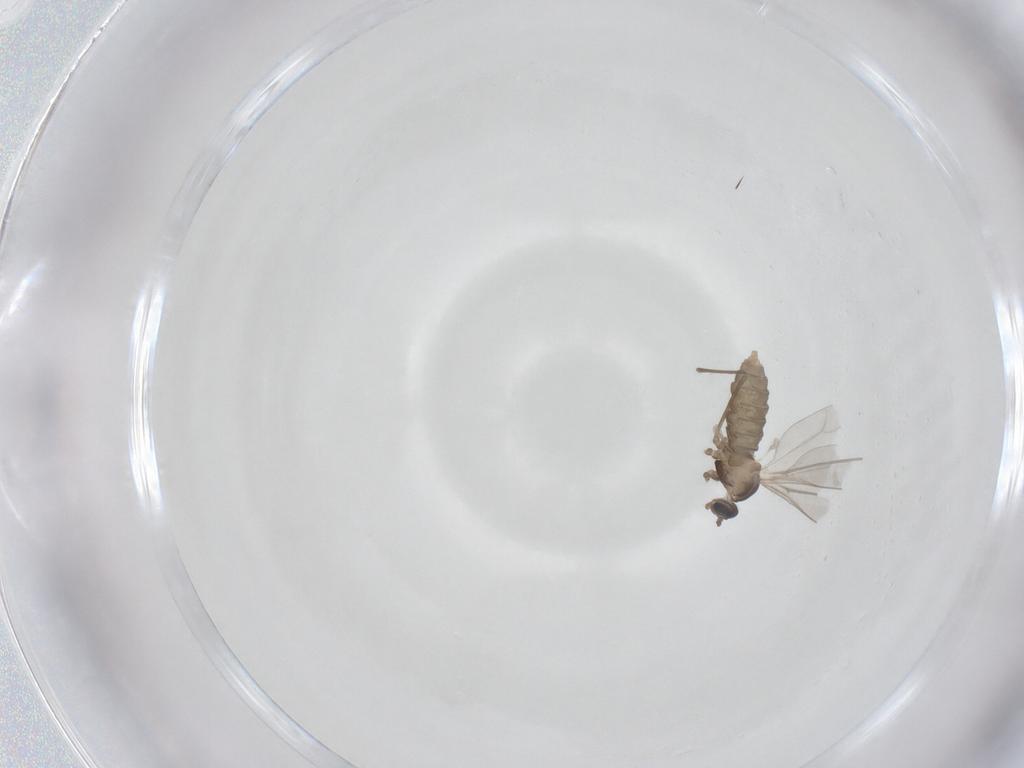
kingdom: Animalia
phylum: Arthropoda
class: Insecta
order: Diptera
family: Cecidomyiidae
